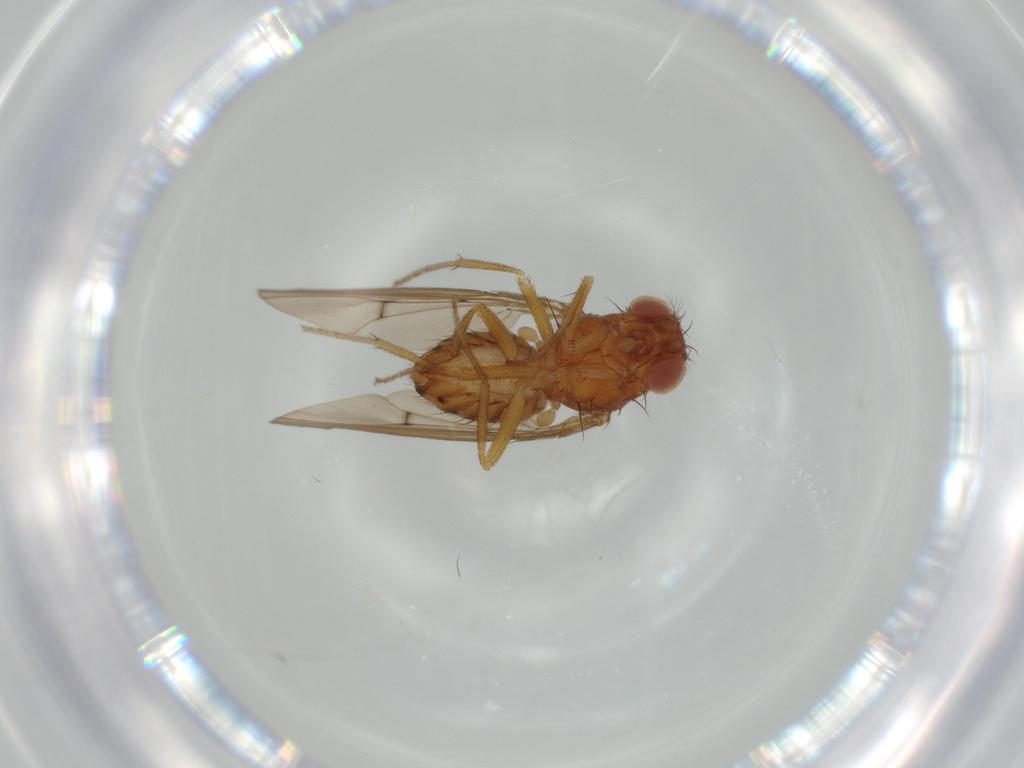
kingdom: Animalia
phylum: Arthropoda
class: Insecta
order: Diptera
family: Drosophilidae
